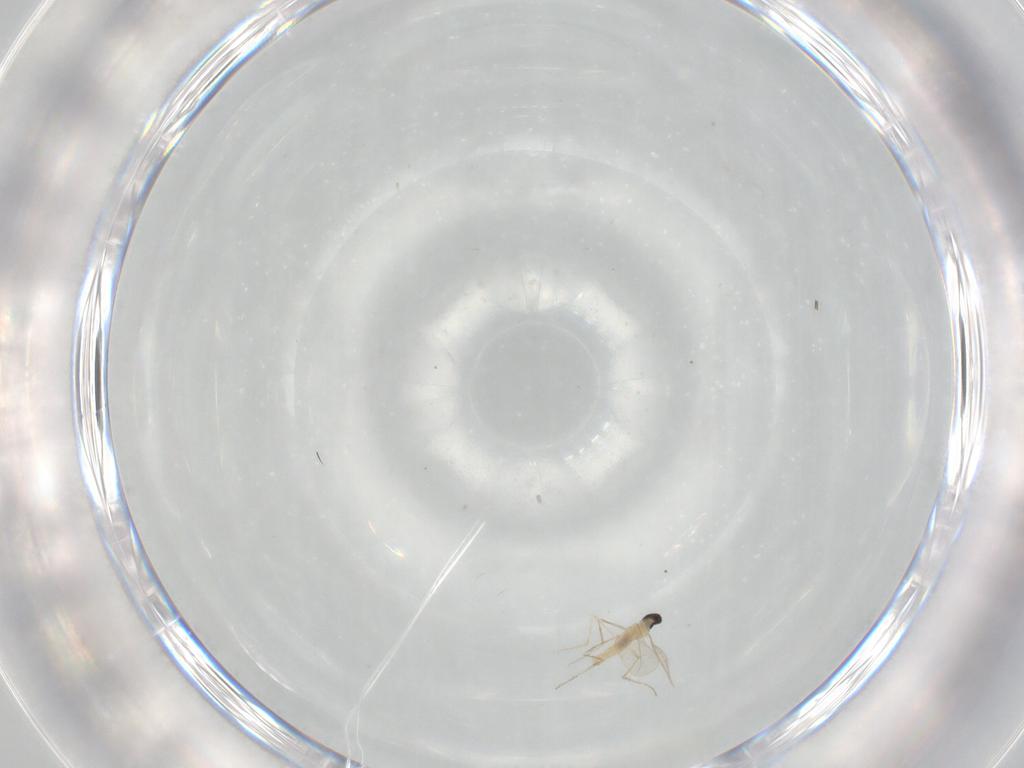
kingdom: Animalia
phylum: Arthropoda
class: Insecta
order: Diptera
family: Cecidomyiidae
